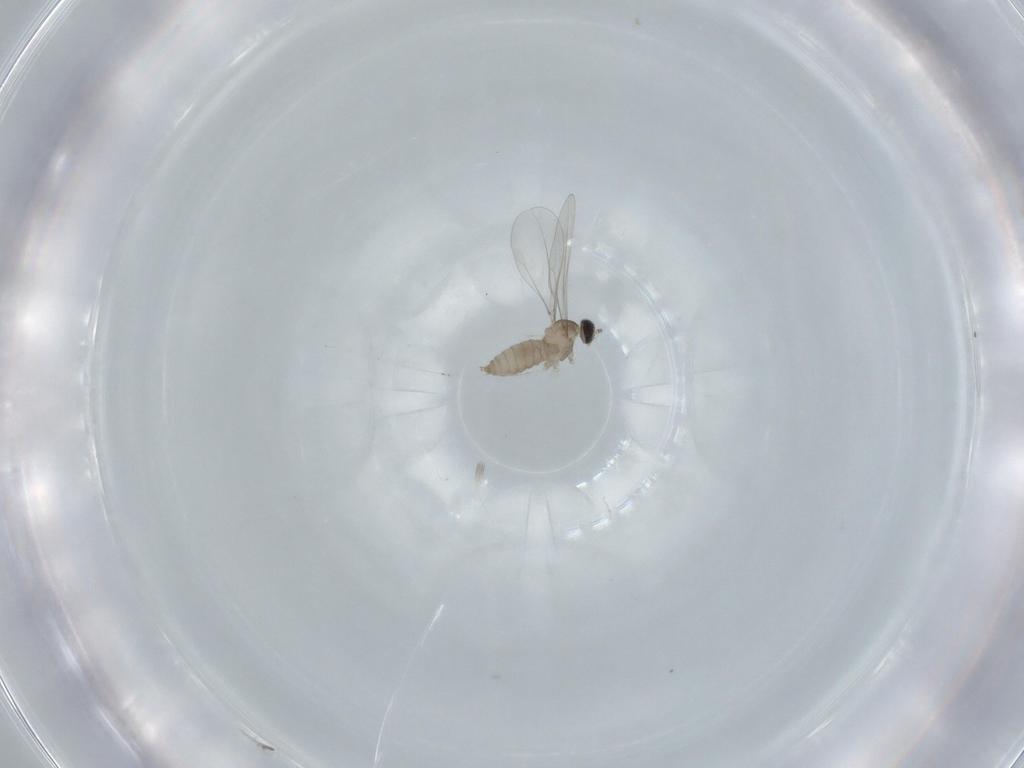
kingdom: Animalia
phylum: Arthropoda
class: Insecta
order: Diptera
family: Cecidomyiidae
